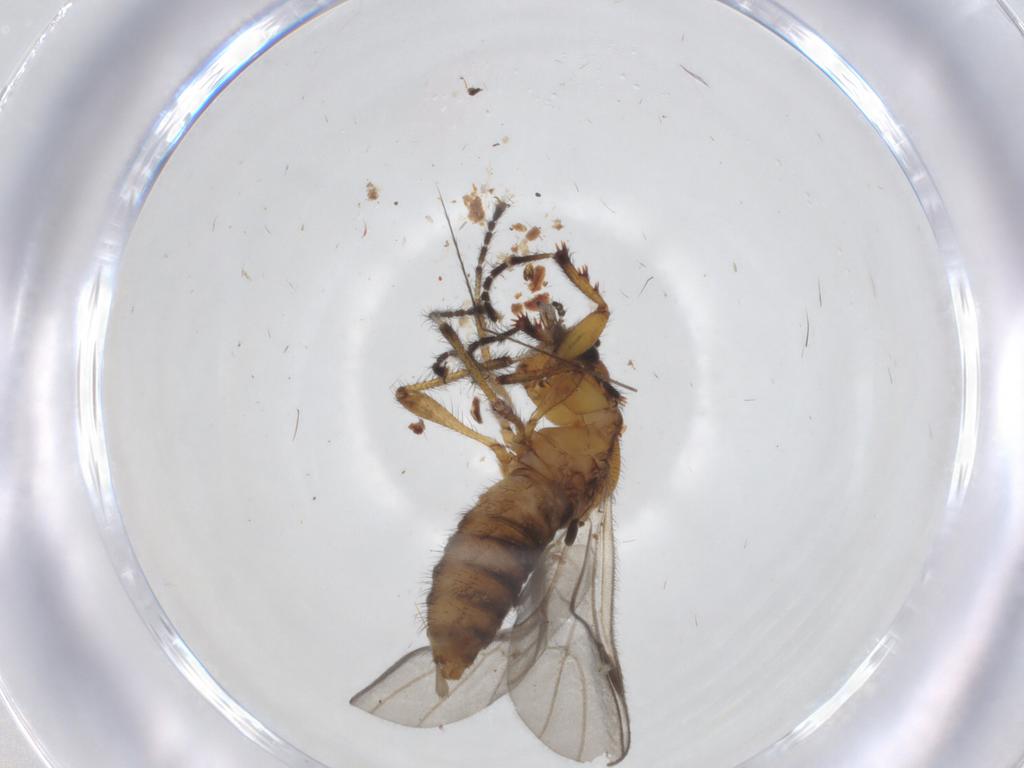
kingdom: Animalia
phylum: Arthropoda
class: Insecta
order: Diptera
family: Bibionidae
